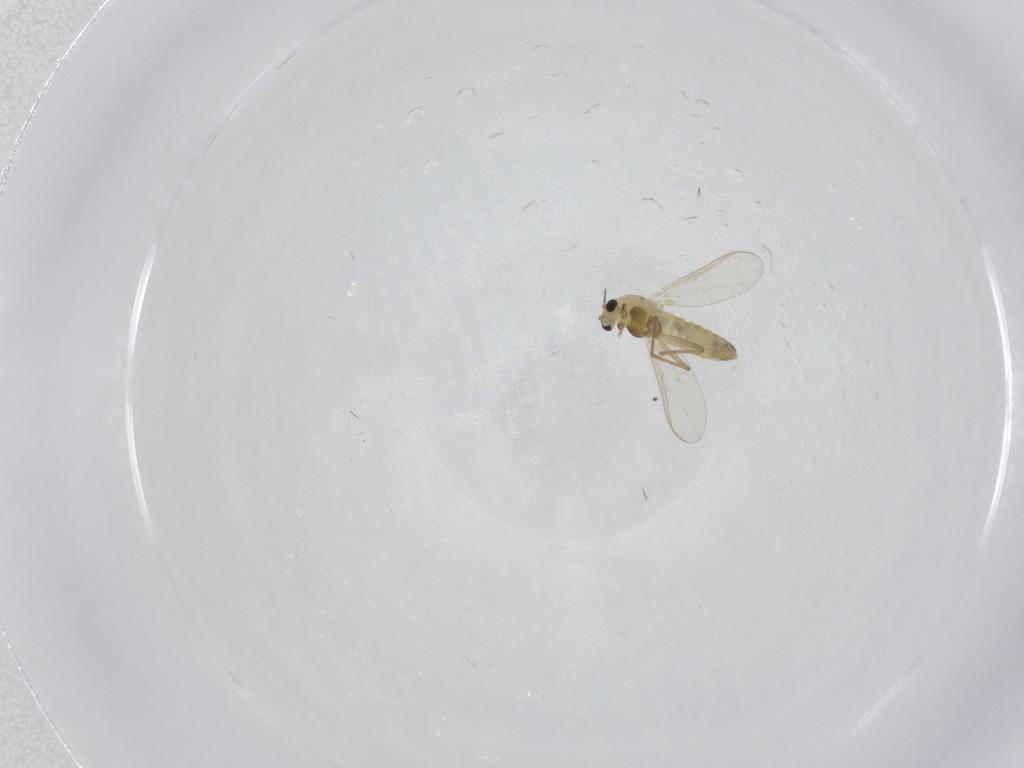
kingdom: Animalia
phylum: Arthropoda
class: Insecta
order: Diptera
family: Chironomidae
